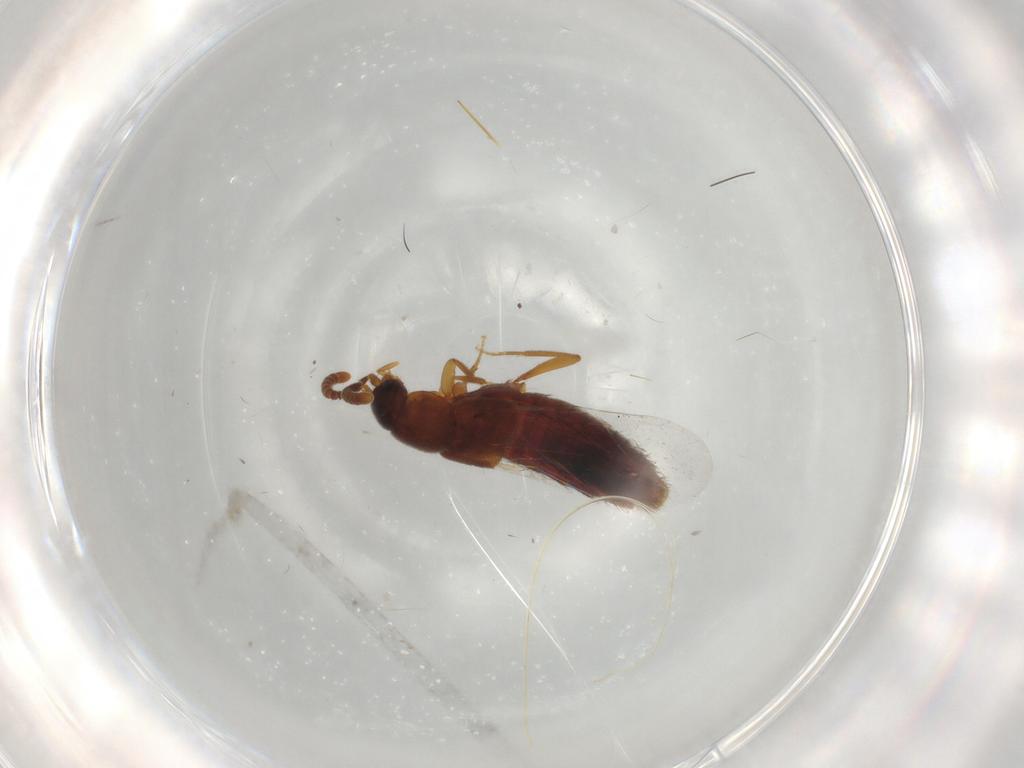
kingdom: Animalia
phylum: Arthropoda
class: Insecta
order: Coleoptera
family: Staphylinidae
